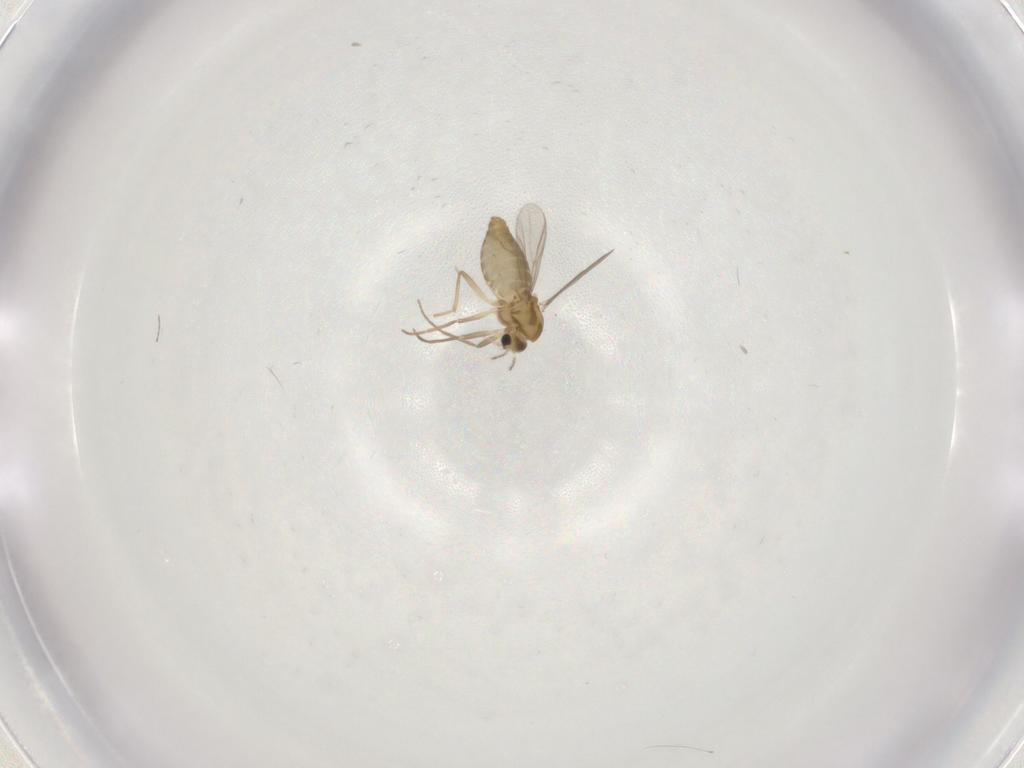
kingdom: Animalia
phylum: Arthropoda
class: Insecta
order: Diptera
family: Chironomidae
